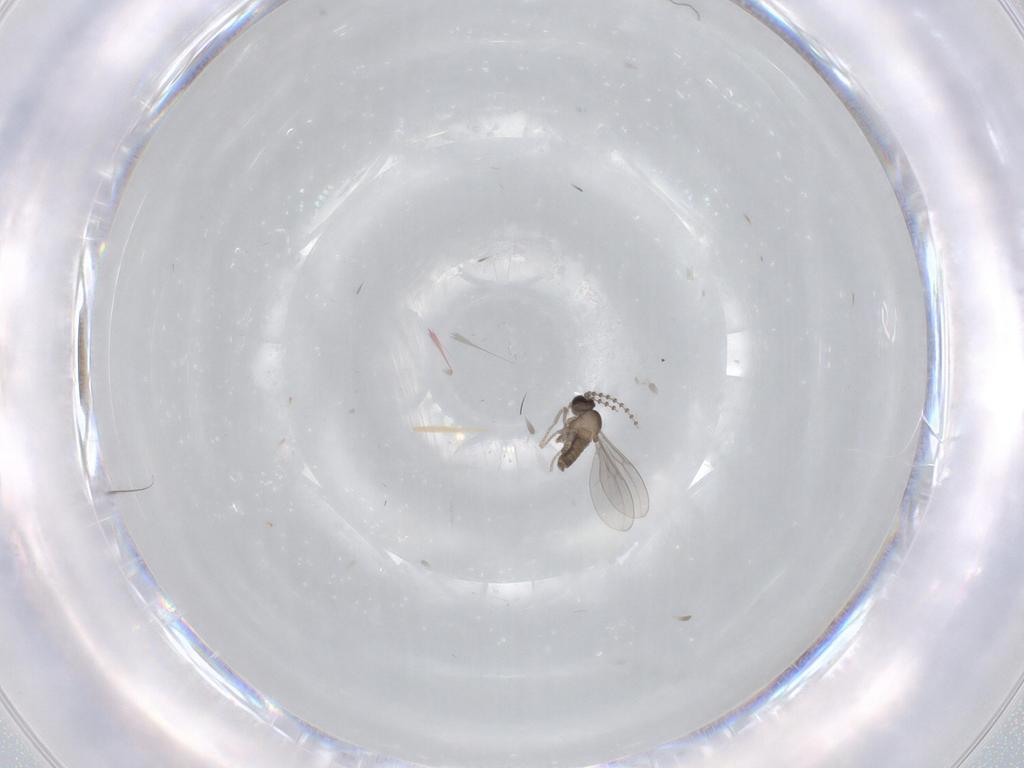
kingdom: Animalia
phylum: Arthropoda
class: Insecta
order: Diptera
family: Cecidomyiidae
